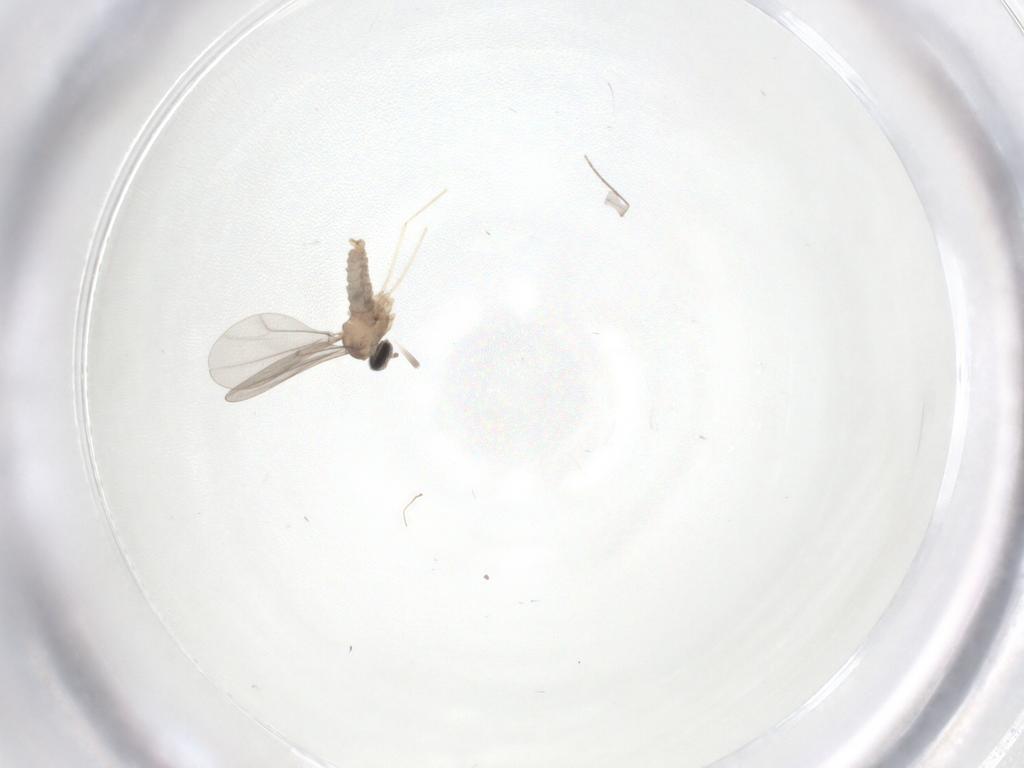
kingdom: Animalia
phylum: Arthropoda
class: Insecta
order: Diptera
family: Cecidomyiidae
